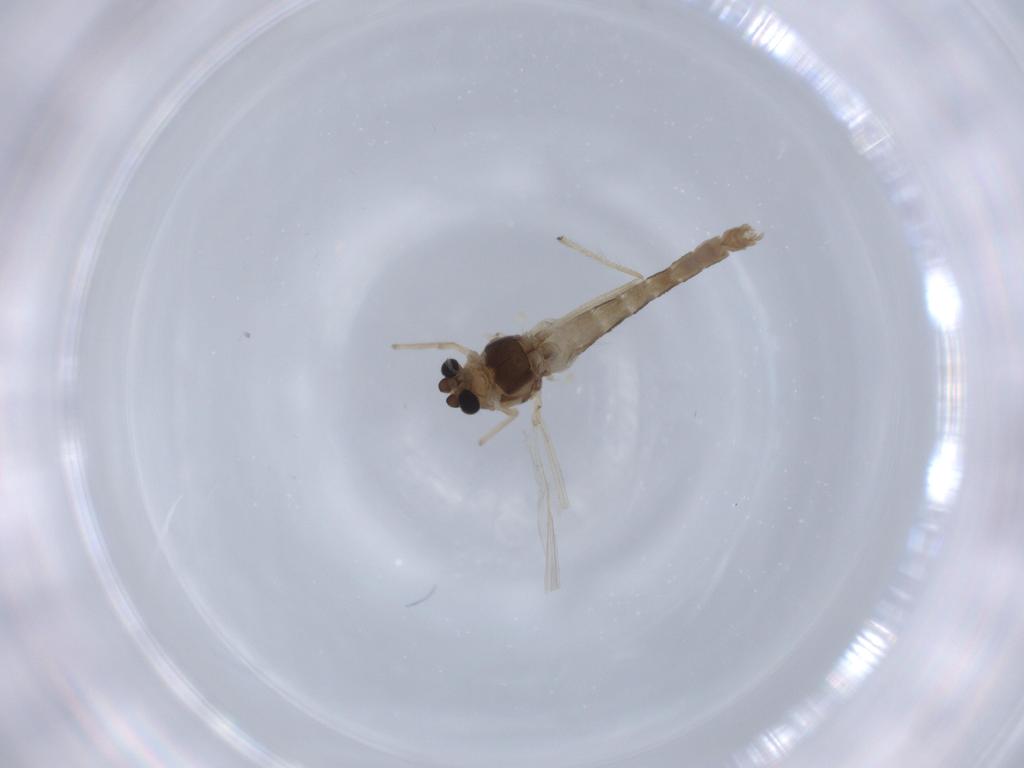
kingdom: Animalia
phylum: Arthropoda
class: Insecta
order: Diptera
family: Chironomidae
